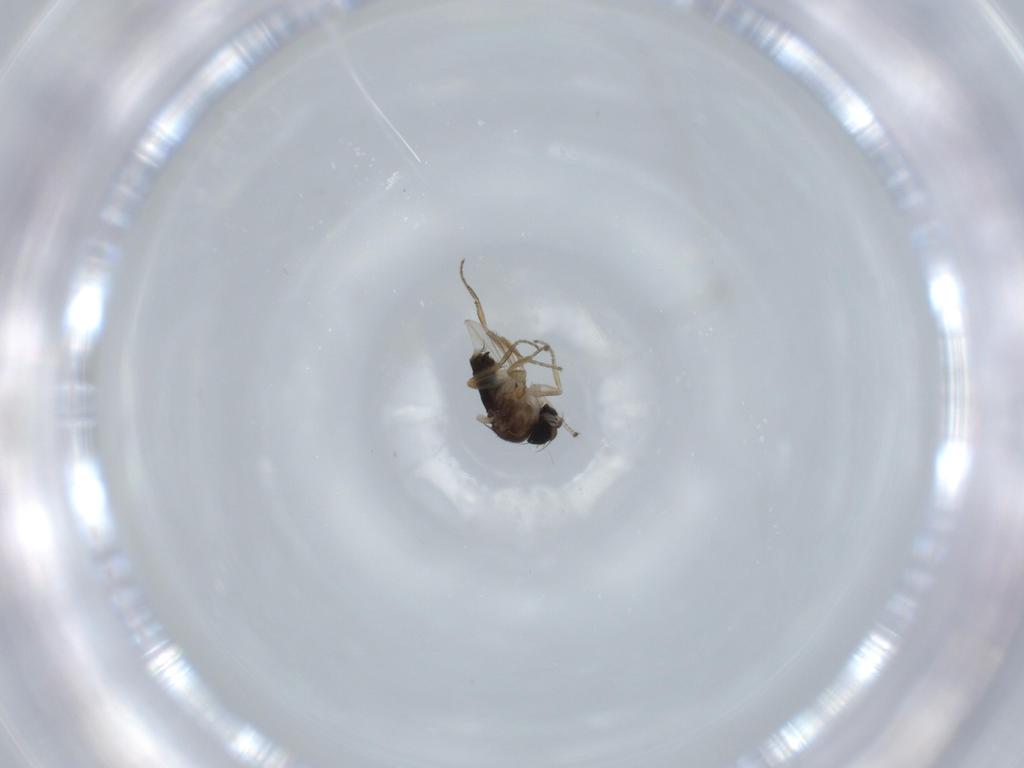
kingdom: Animalia
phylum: Arthropoda
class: Insecta
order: Diptera
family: Phoridae
